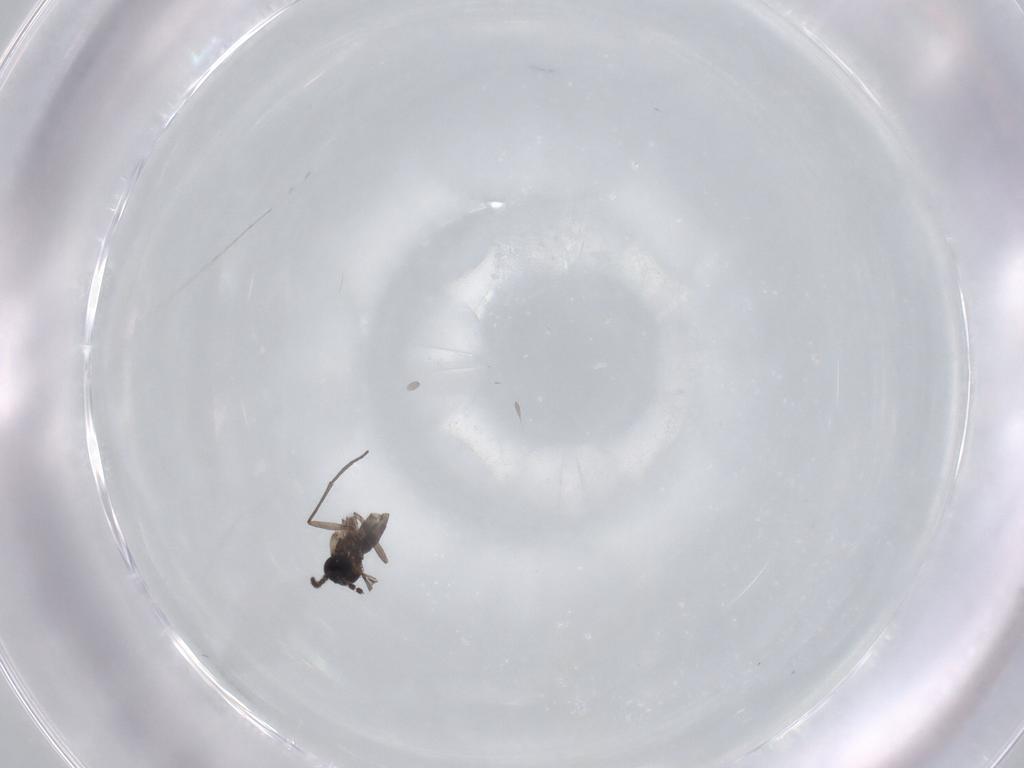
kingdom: Animalia
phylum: Arthropoda
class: Insecta
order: Diptera
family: Sciaridae
